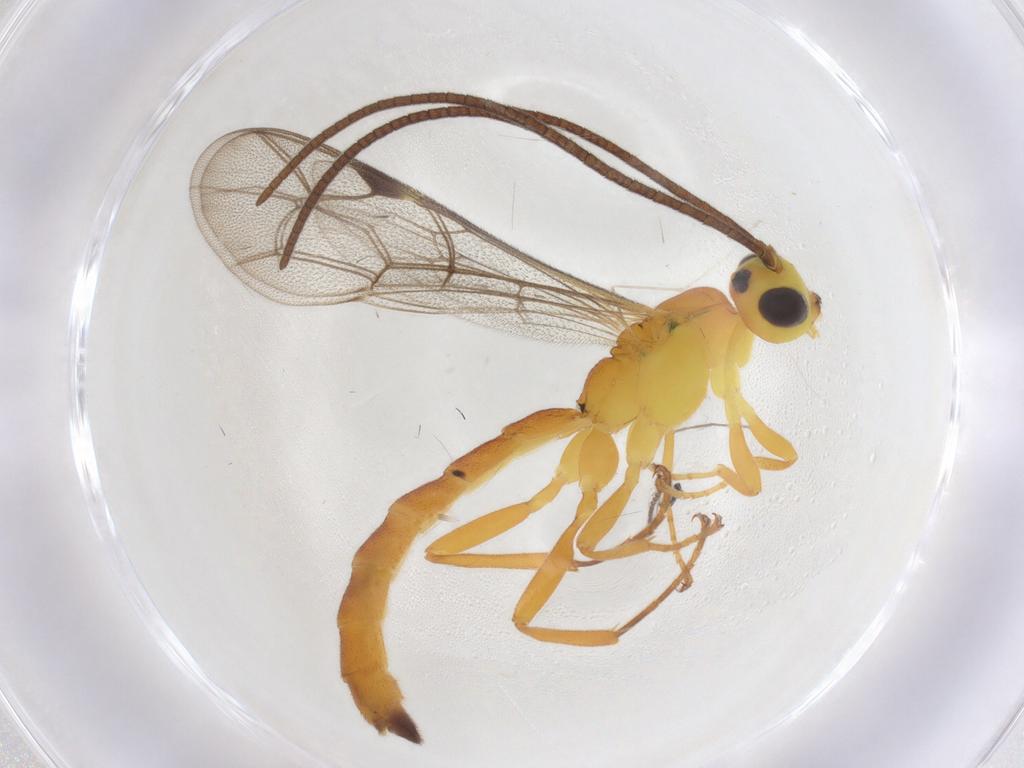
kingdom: Animalia
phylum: Arthropoda
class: Insecta
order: Hymenoptera
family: Ichneumonidae
